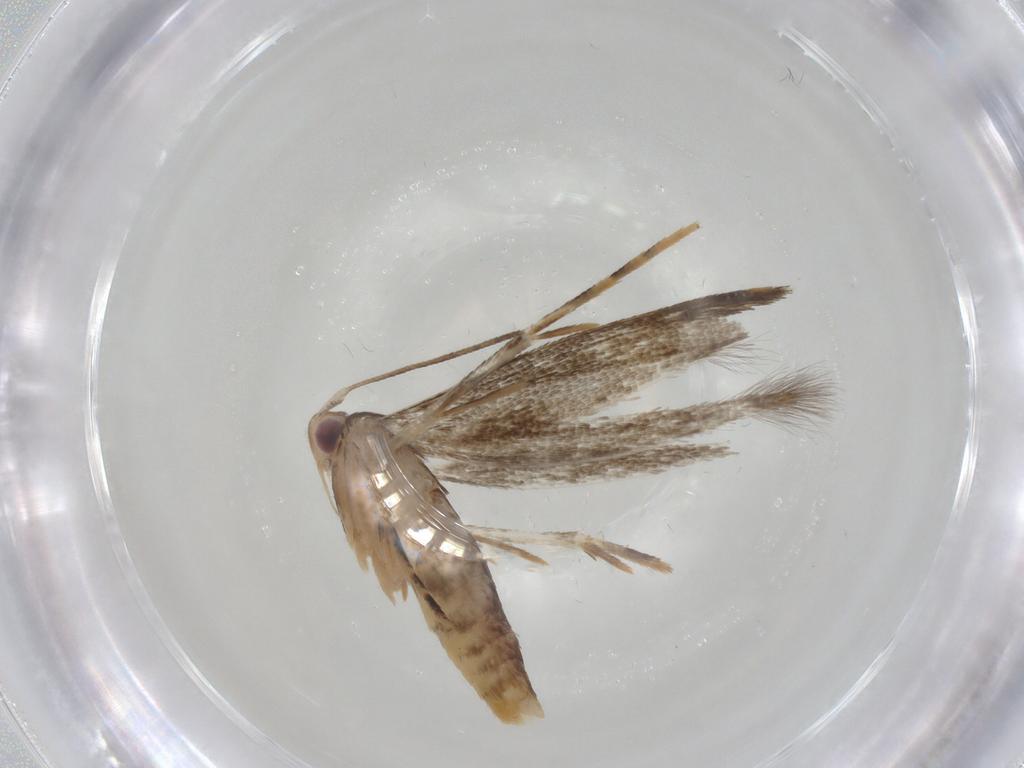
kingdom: Animalia
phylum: Arthropoda
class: Insecta
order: Lepidoptera
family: Momphidae
